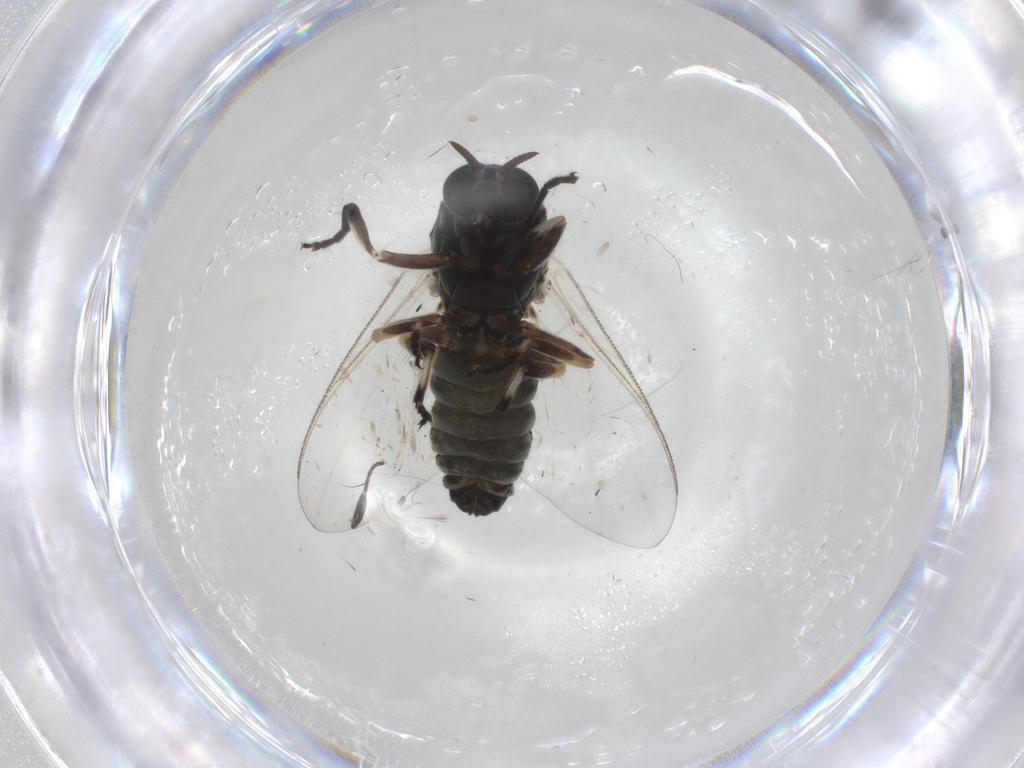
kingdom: Animalia
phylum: Arthropoda
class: Insecta
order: Diptera
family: Simuliidae
